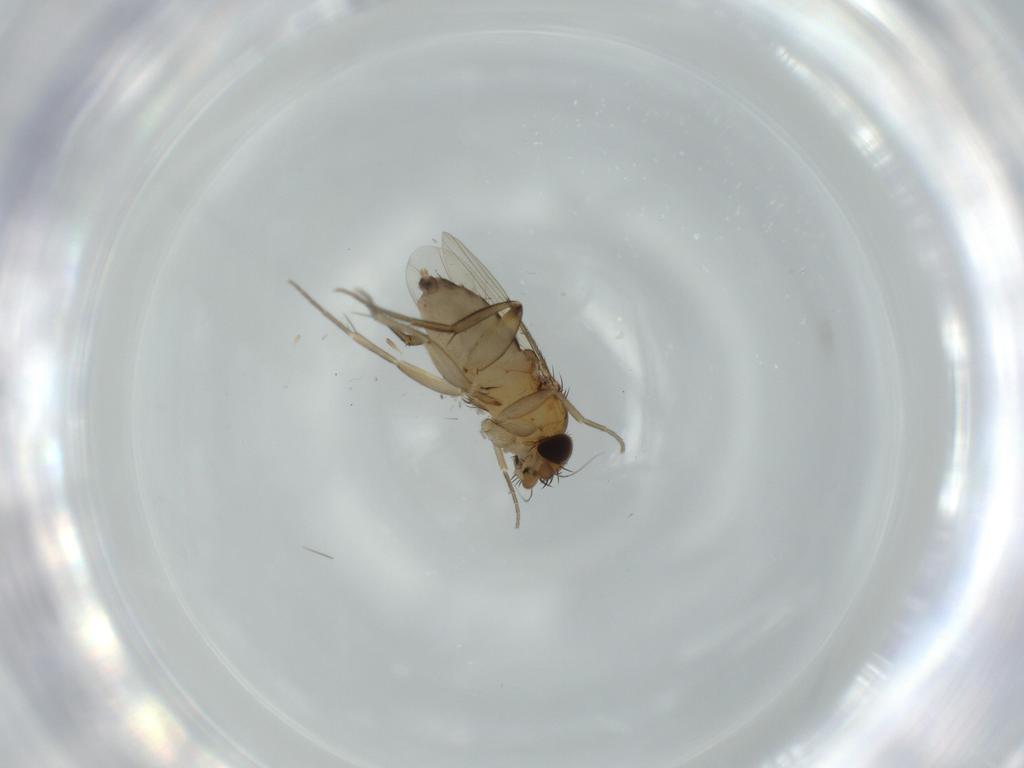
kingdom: Animalia
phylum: Arthropoda
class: Insecta
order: Diptera
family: Phoridae
